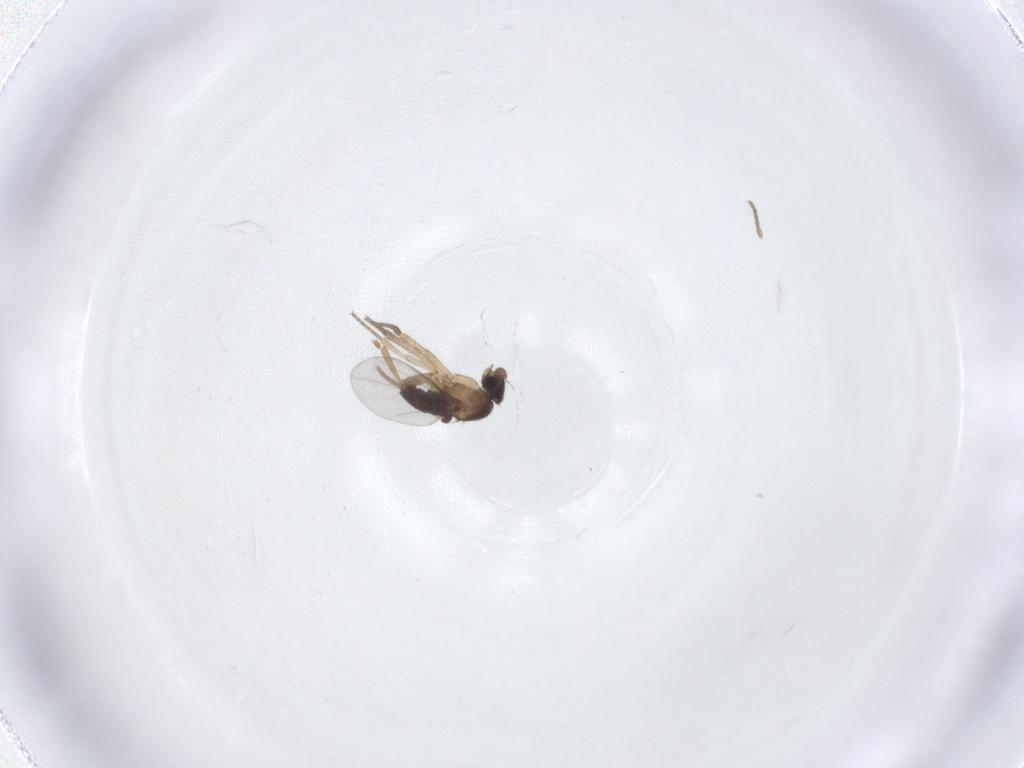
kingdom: Animalia
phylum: Arthropoda
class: Insecta
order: Diptera
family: Phoridae
